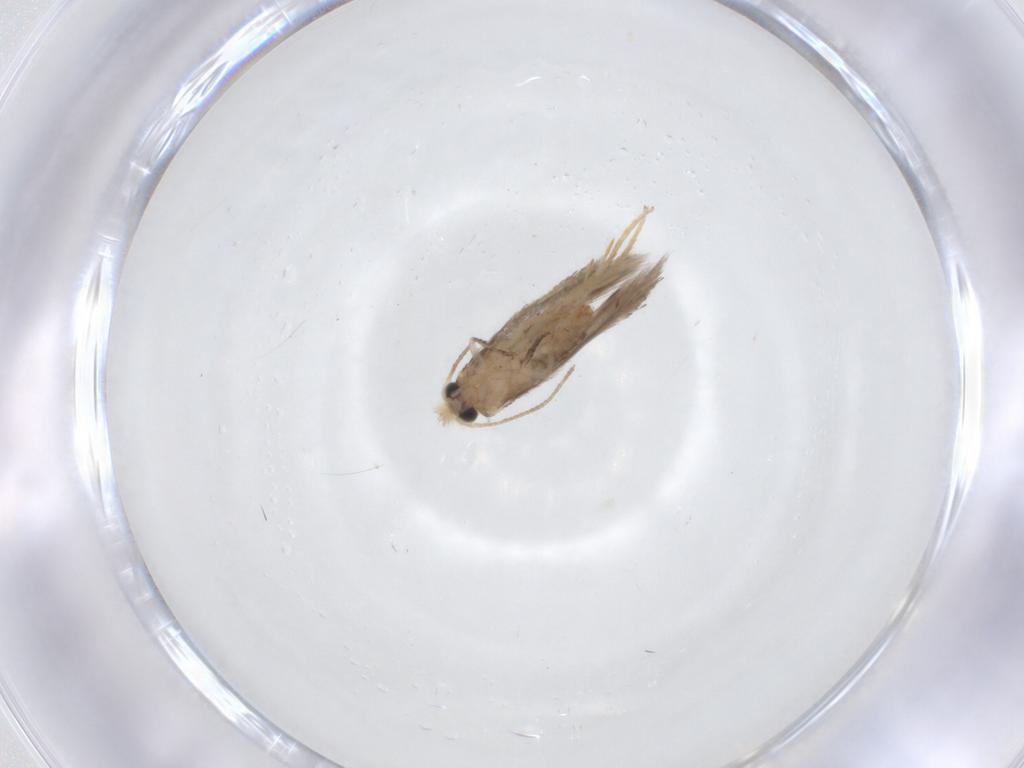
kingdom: Animalia
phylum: Arthropoda
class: Insecta
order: Lepidoptera
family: Nepticulidae
